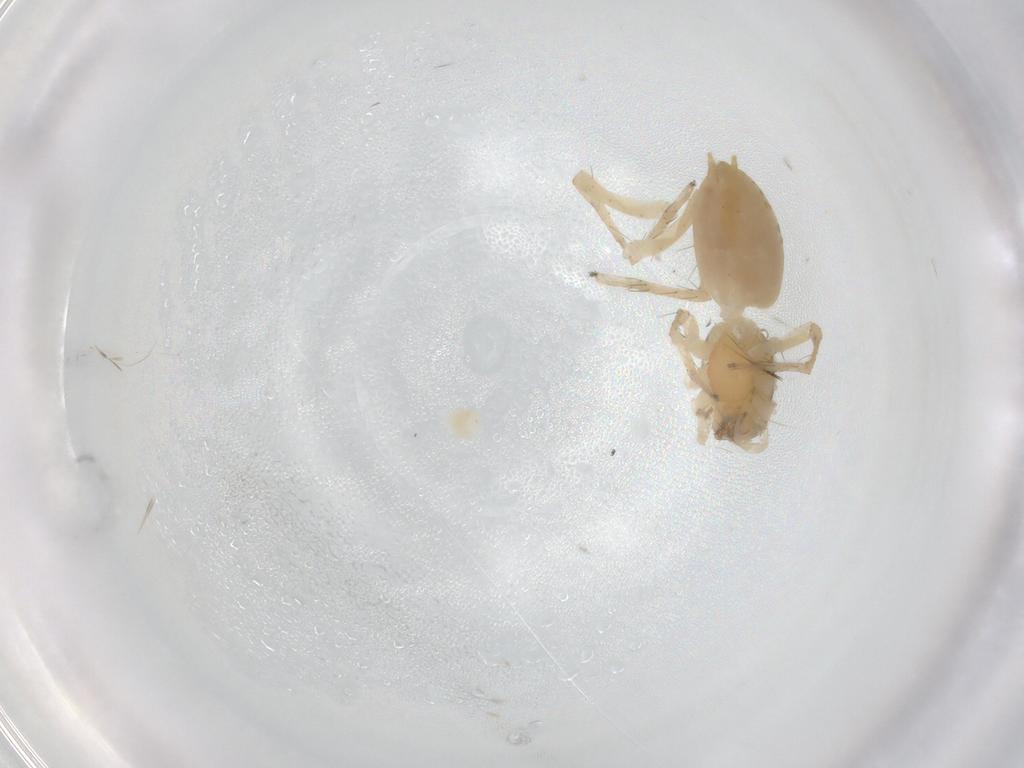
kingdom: Animalia
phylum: Arthropoda
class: Arachnida
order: Araneae
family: Anyphaenidae
